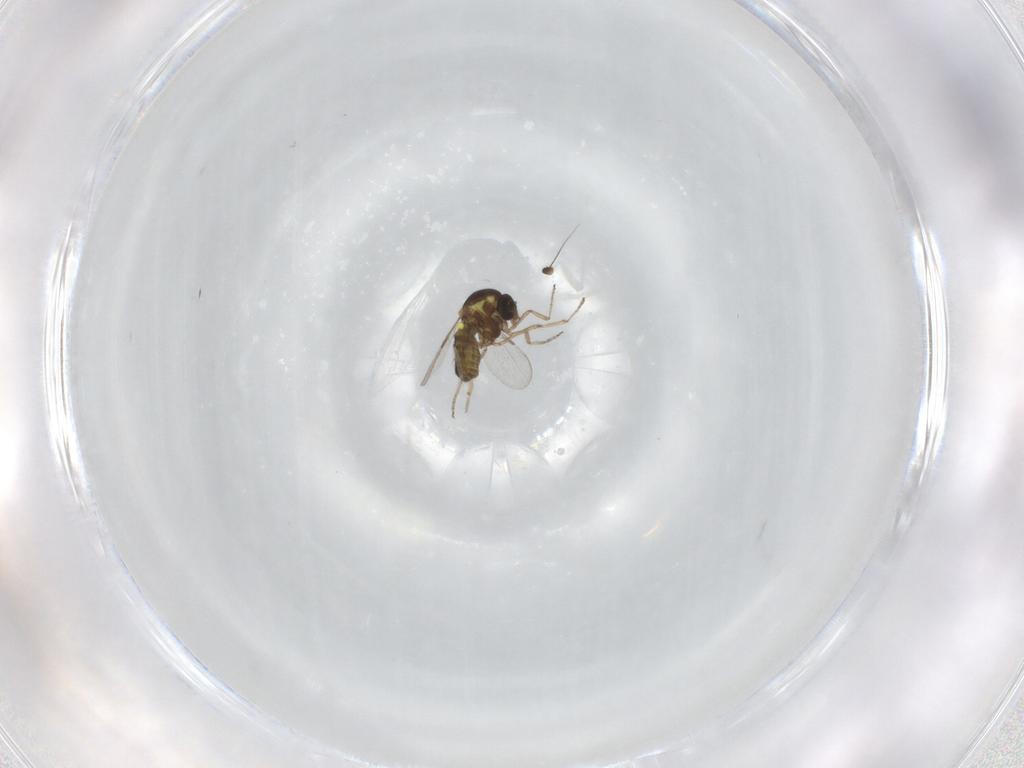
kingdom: Animalia
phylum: Arthropoda
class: Insecta
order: Diptera
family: Ceratopogonidae
